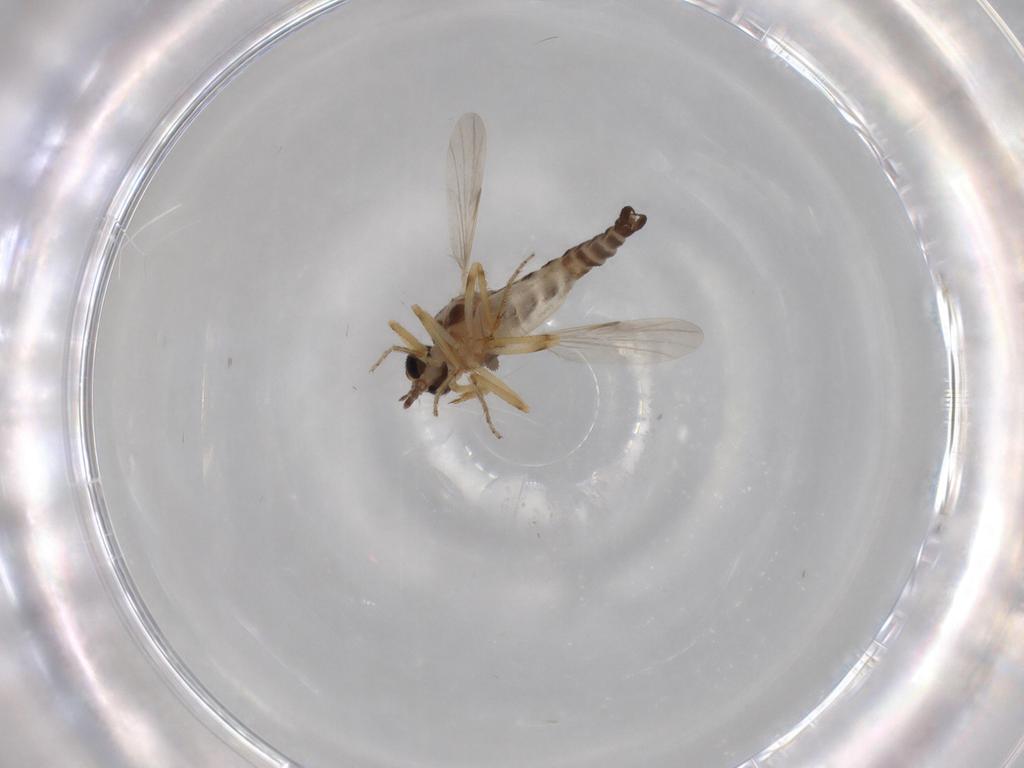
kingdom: Animalia
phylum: Arthropoda
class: Insecta
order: Diptera
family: Ceratopogonidae
